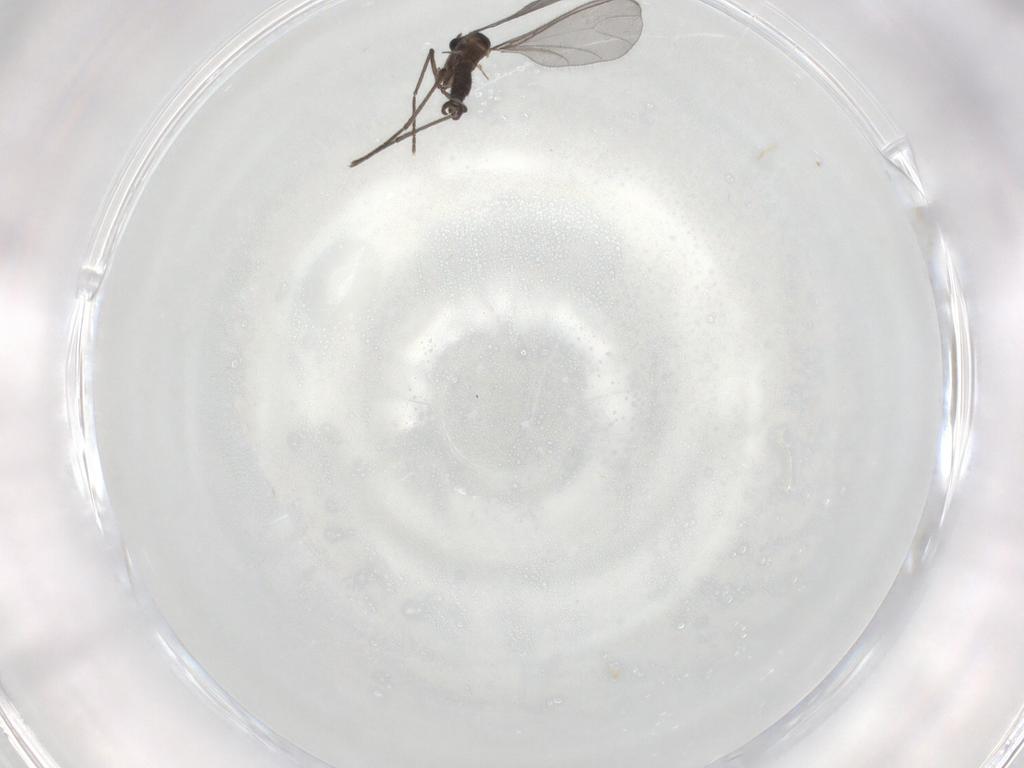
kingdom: Animalia
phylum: Arthropoda
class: Insecta
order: Diptera
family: Sciaridae
